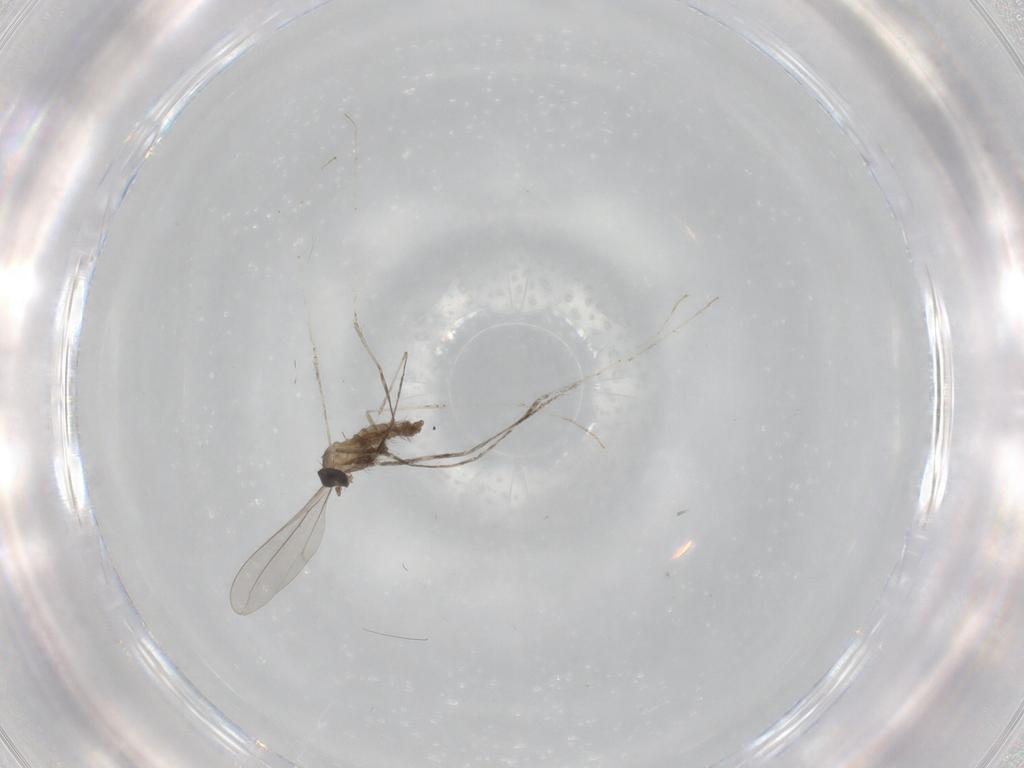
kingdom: Animalia
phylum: Arthropoda
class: Insecta
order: Diptera
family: Cecidomyiidae
